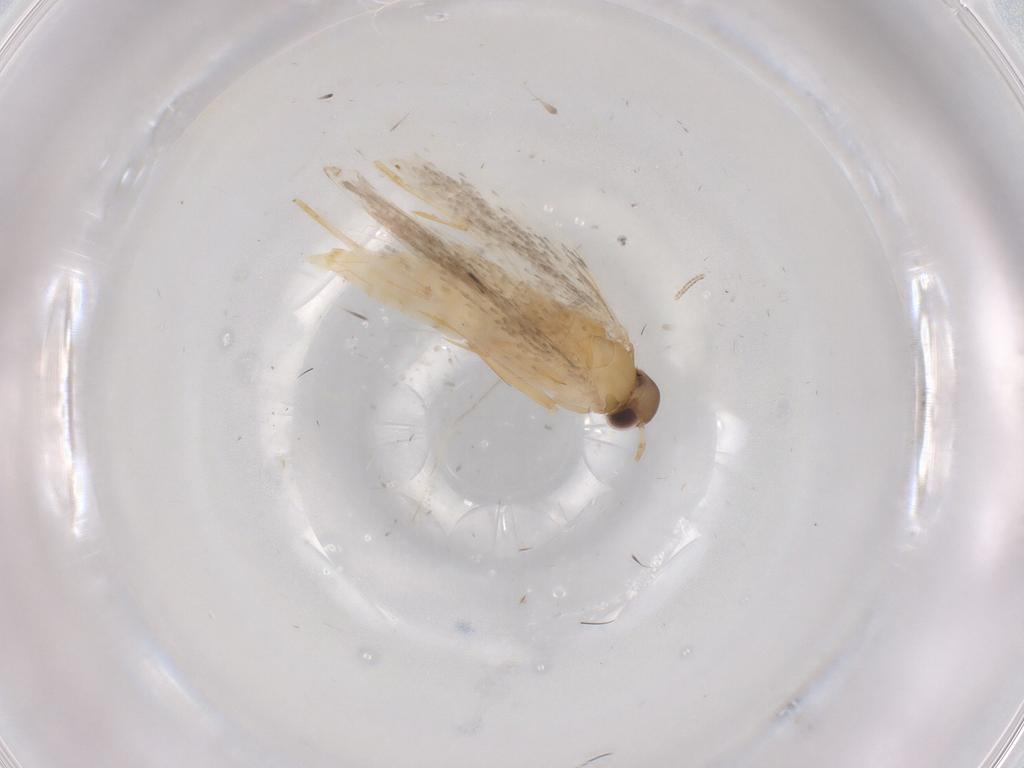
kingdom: Animalia
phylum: Arthropoda
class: Insecta
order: Lepidoptera
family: Autostichidae
